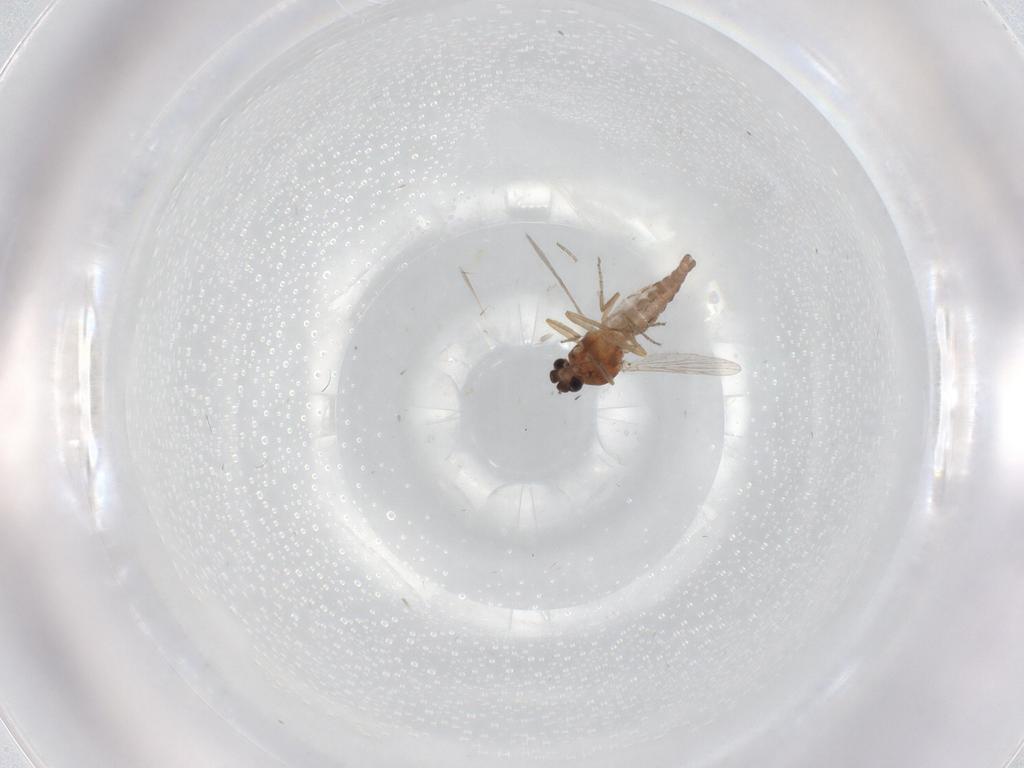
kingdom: Animalia
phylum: Arthropoda
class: Insecta
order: Diptera
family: Ceratopogonidae
